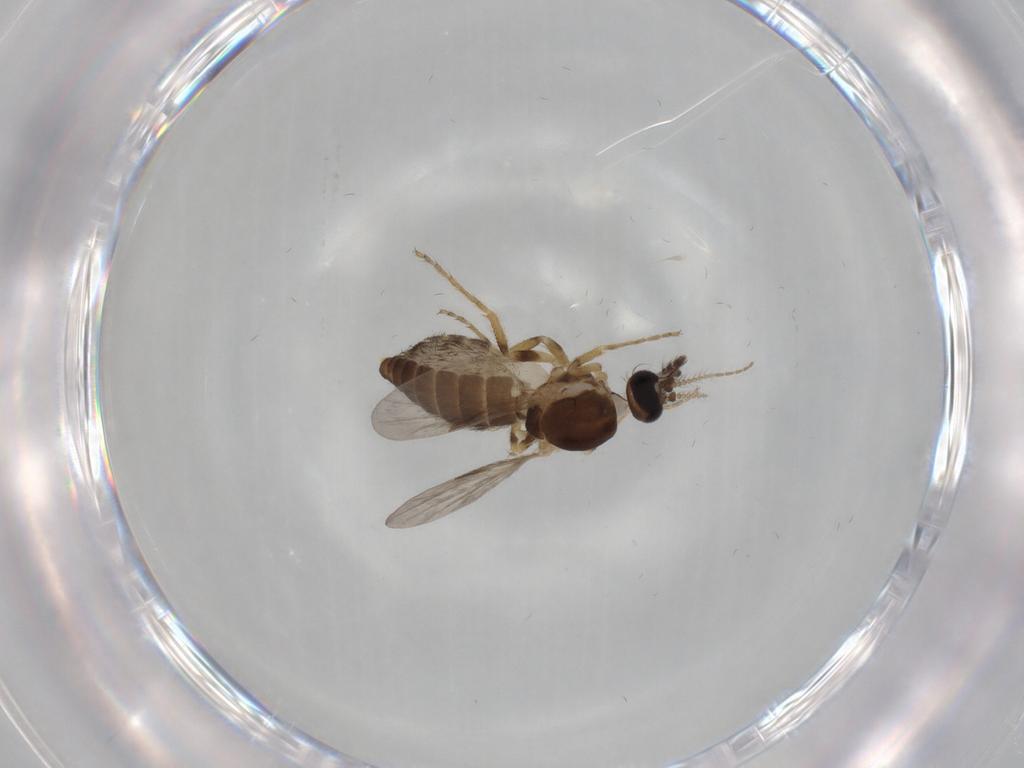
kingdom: Animalia
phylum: Arthropoda
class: Insecta
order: Diptera
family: Ceratopogonidae
